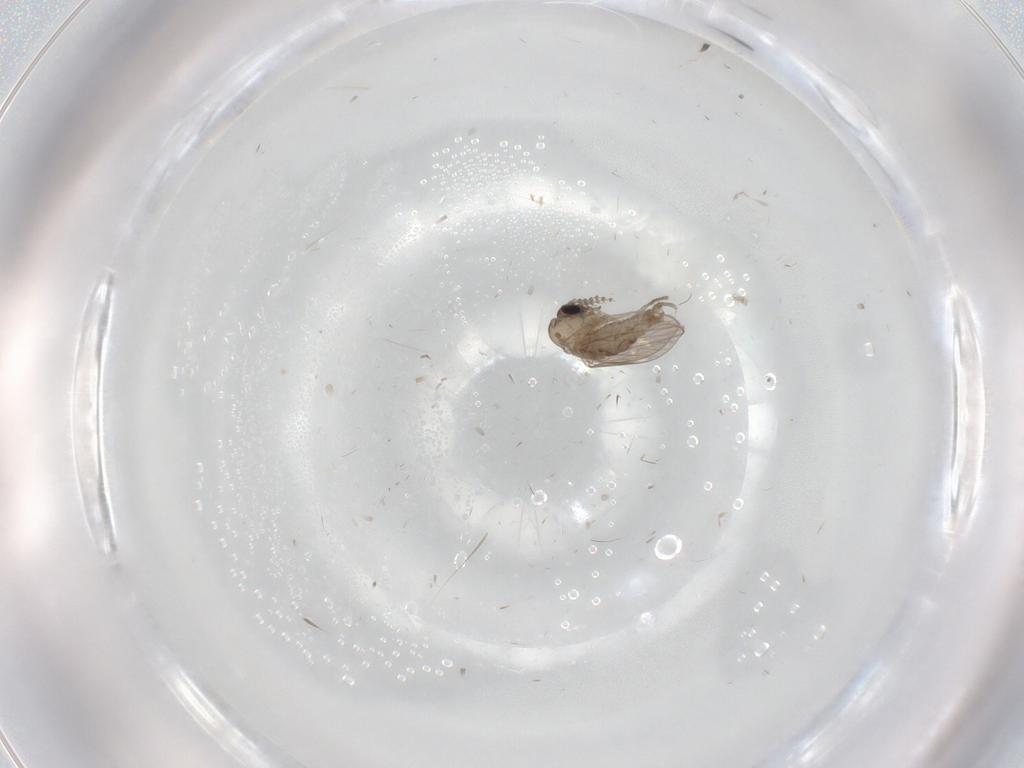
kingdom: Animalia
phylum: Arthropoda
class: Insecta
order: Diptera
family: Psychodidae
